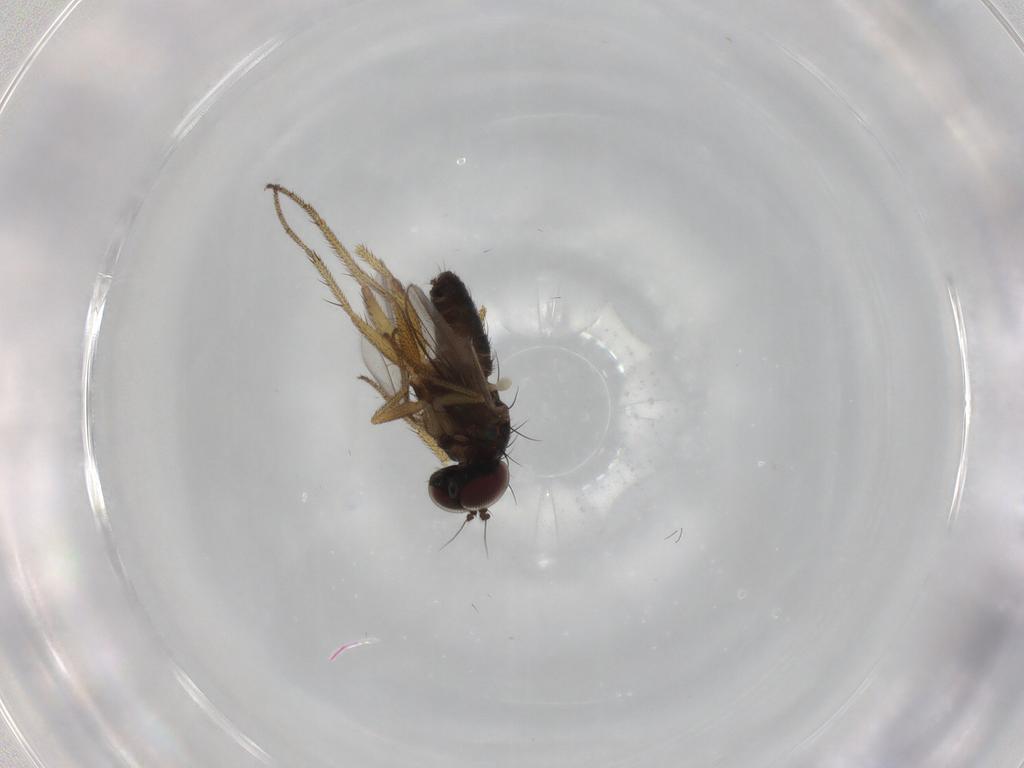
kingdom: Animalia
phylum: Arthropoda
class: Insecta
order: Diptera
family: Dolichopodidae
